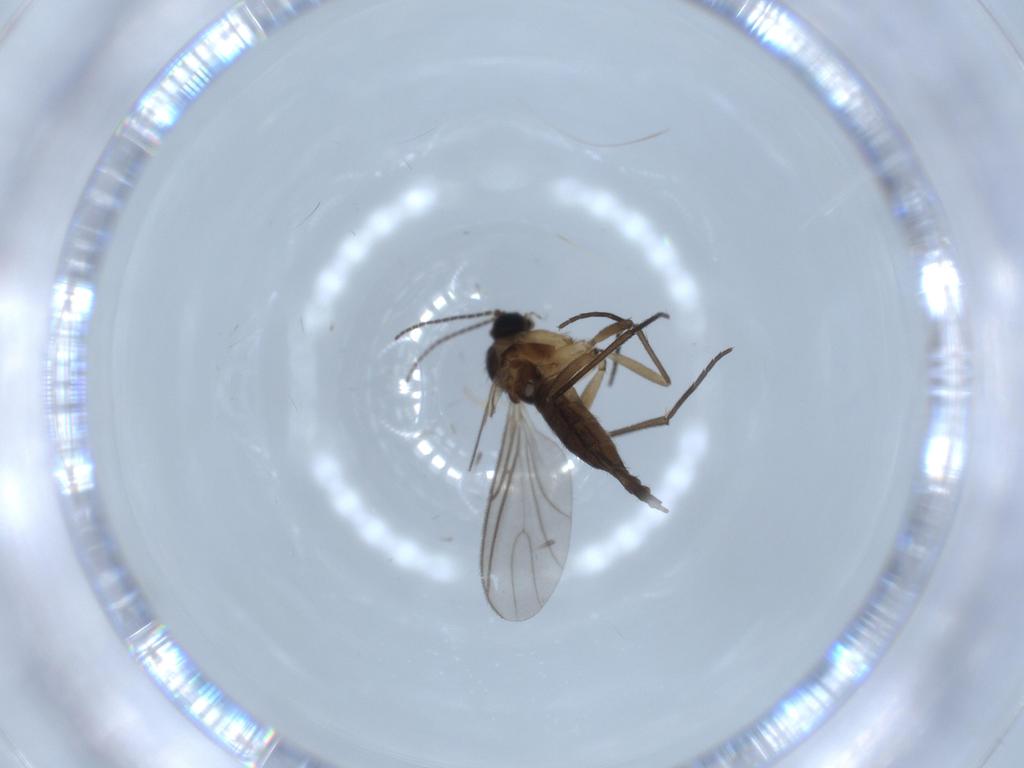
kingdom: Animalia
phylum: Arthropoda
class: Insecta
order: Diptera
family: Sciaridae
